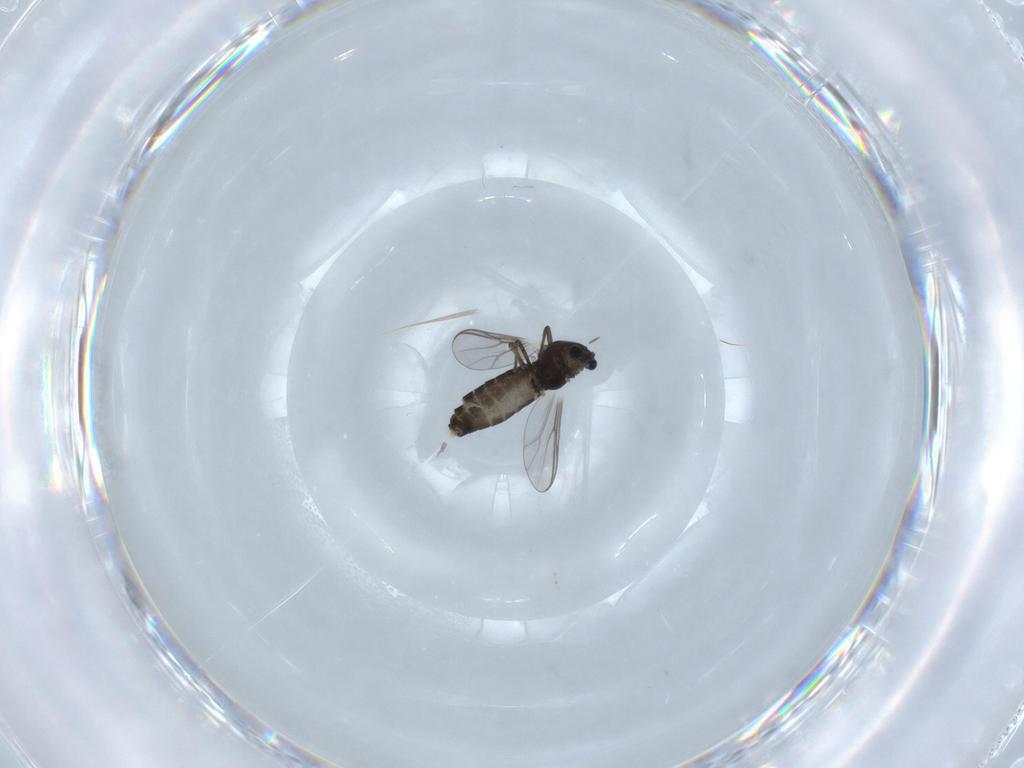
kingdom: Animalia
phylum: Arthropoda
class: Insecta
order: Diptera
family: Chironomidae
